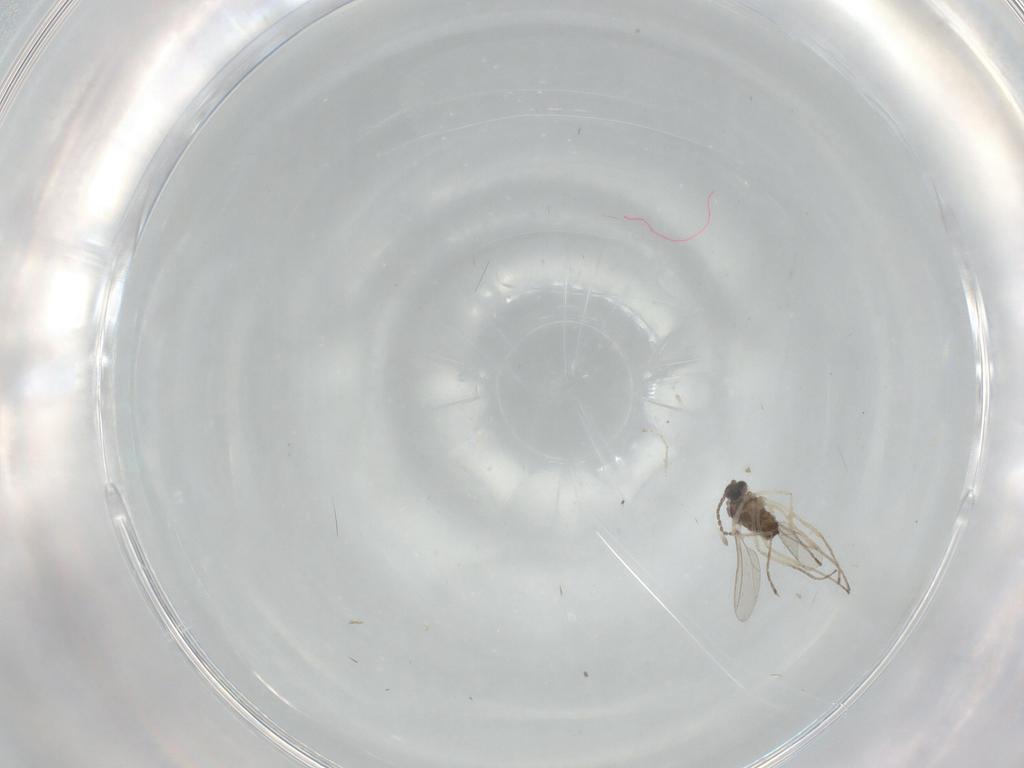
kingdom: Animalia
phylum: Arthropoda
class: Insecta
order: Diptera
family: Cecidomyiidae
